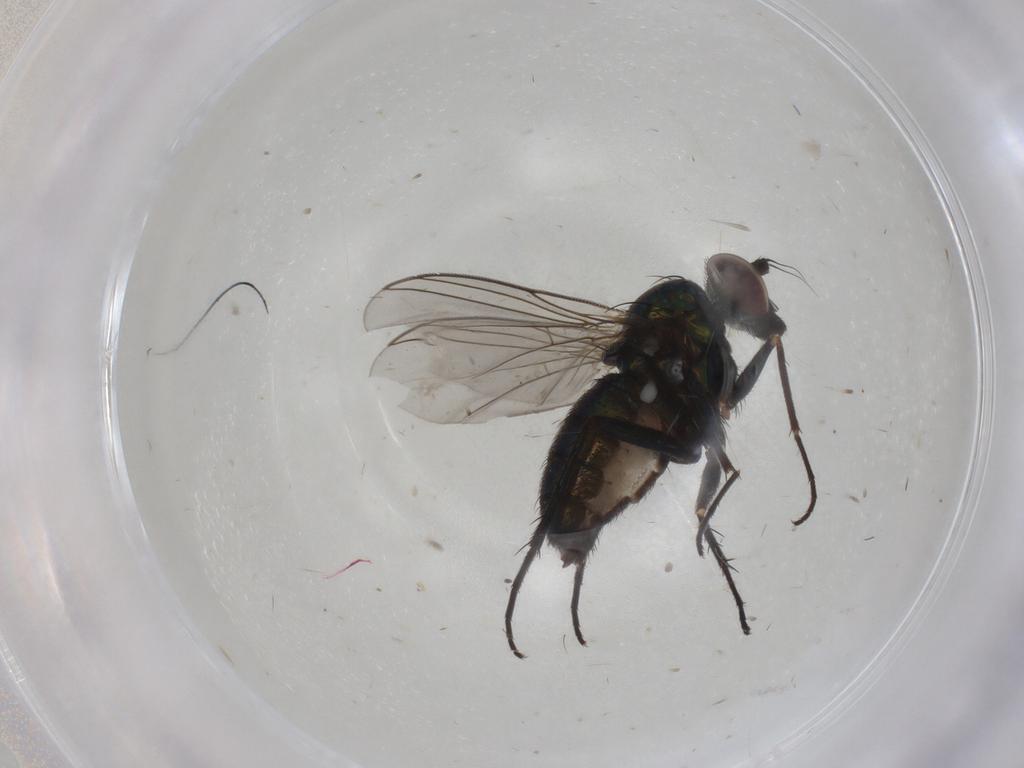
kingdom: Animalia
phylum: Arthropoda
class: Insecta
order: Diptera
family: Dolichopodidae
